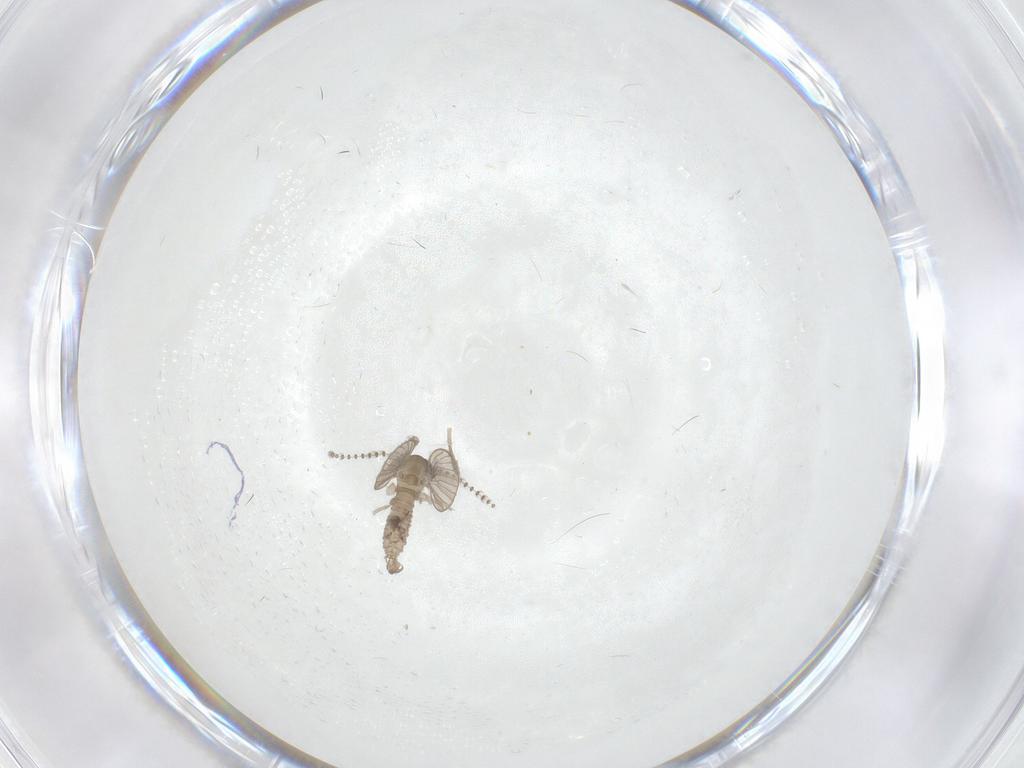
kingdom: Animalia
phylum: Arthropoda
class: Insecta
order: Diptera
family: Psychodidae
